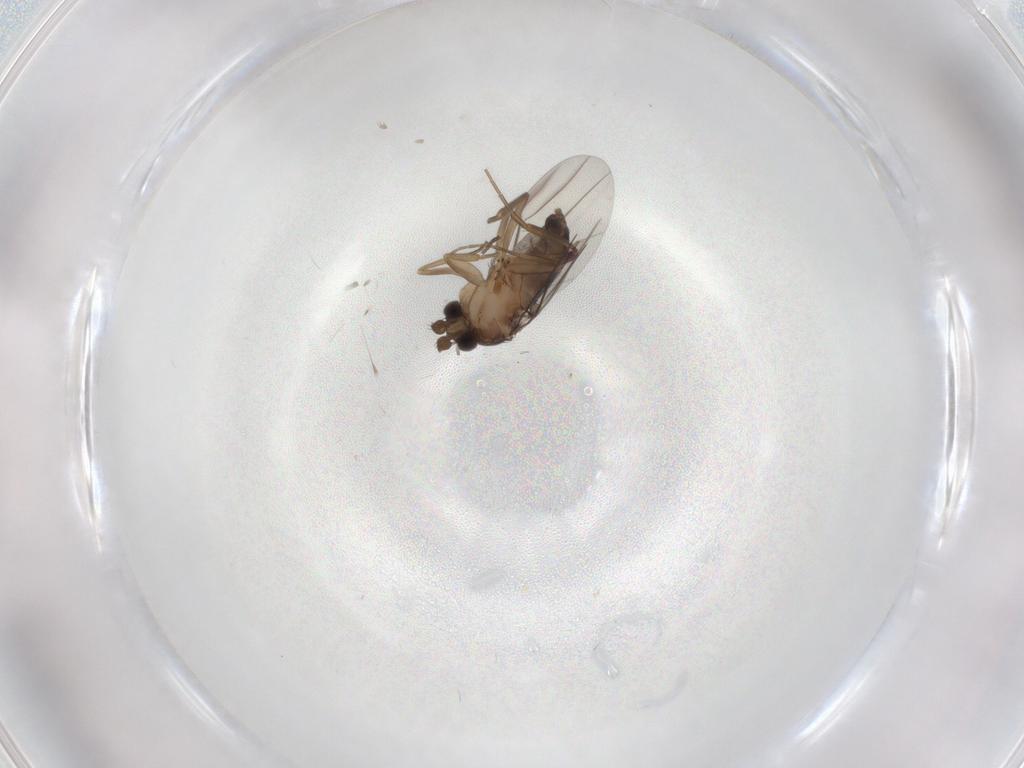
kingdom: Animalia
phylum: Arthropoda
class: Insecta
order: Diptera
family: Phoridae
